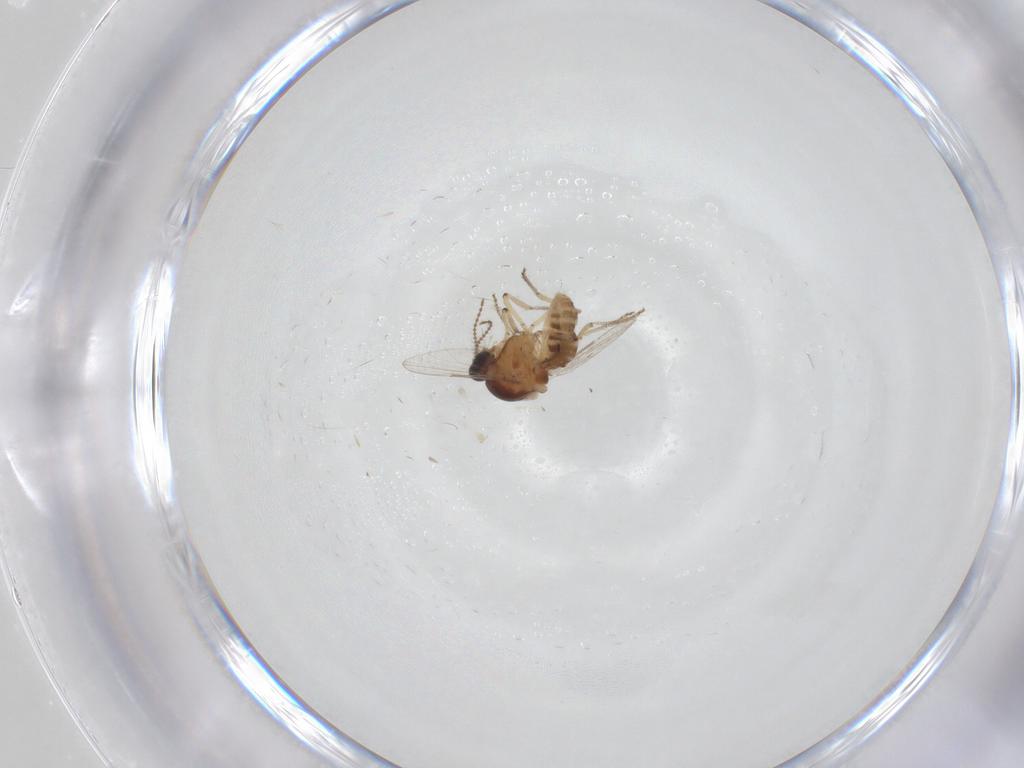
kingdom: Animalia
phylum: Arthropoda
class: Insecta
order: Diptera
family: Ceratopogonidae
